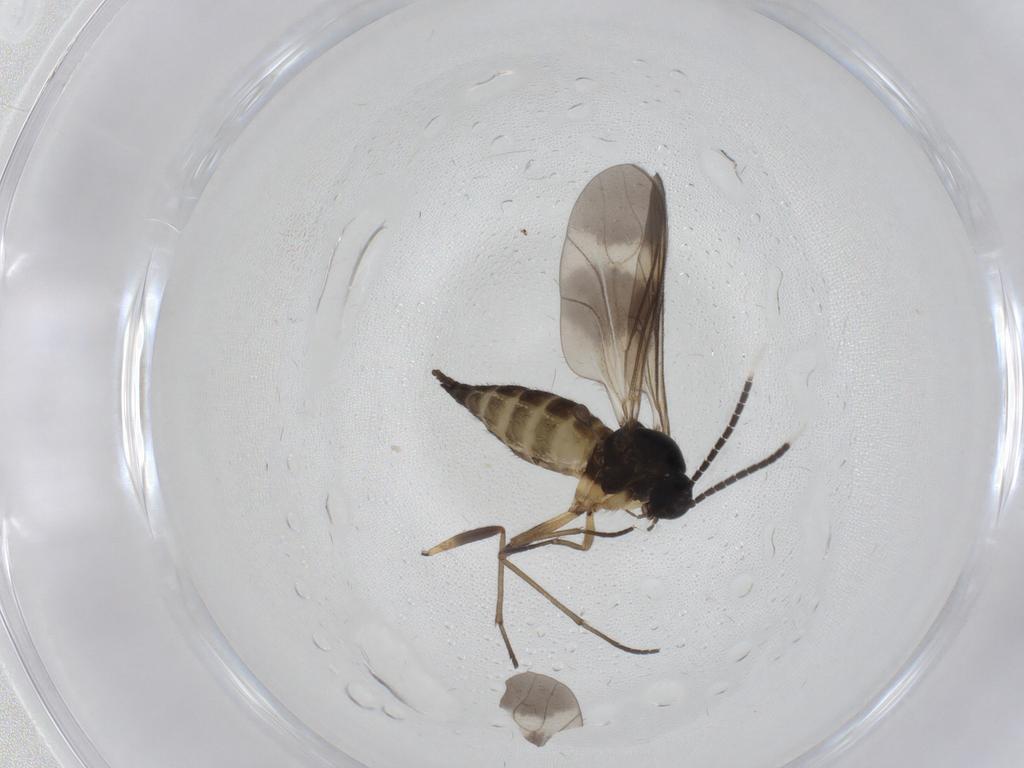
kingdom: Animalia
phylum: Arthropoda
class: Insecta
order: Diptera
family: Sciaridae
